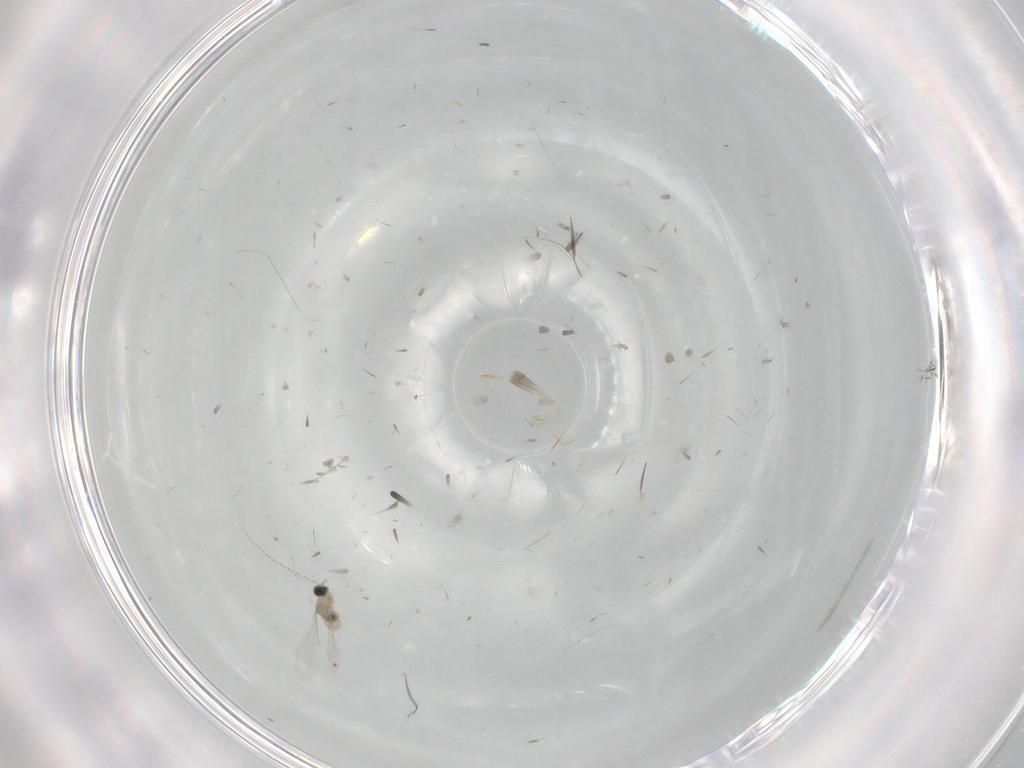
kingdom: Animalia
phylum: Arthropoda
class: Insecta
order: Diptera
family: Cecidomyiidae
